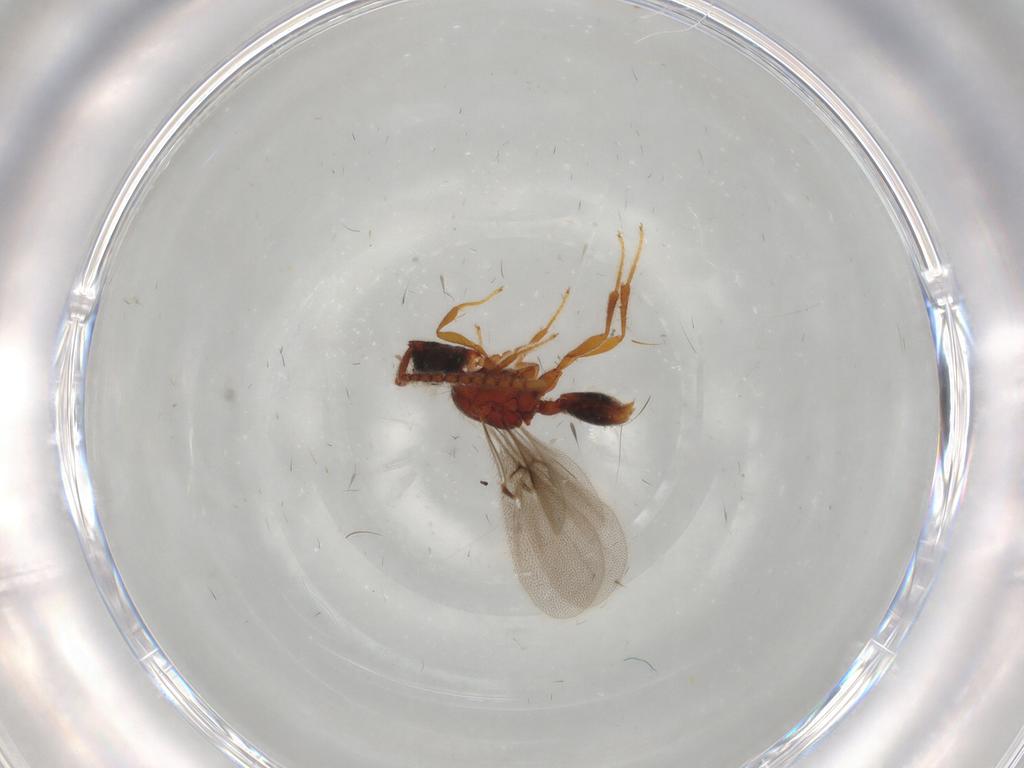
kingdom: Animalia
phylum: Arthropoda
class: Insecta
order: Hymenoptera
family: Diapriidae
